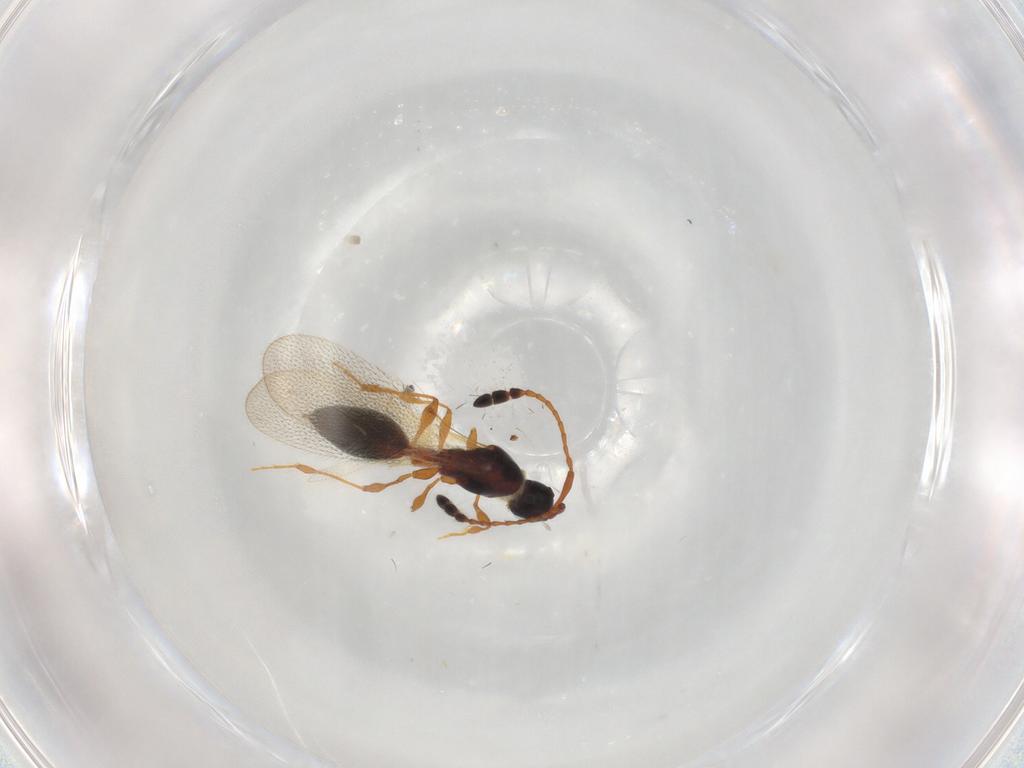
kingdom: Animalia
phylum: Arthropoda
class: Insecta
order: Hymenoptera
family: Diapriidae
